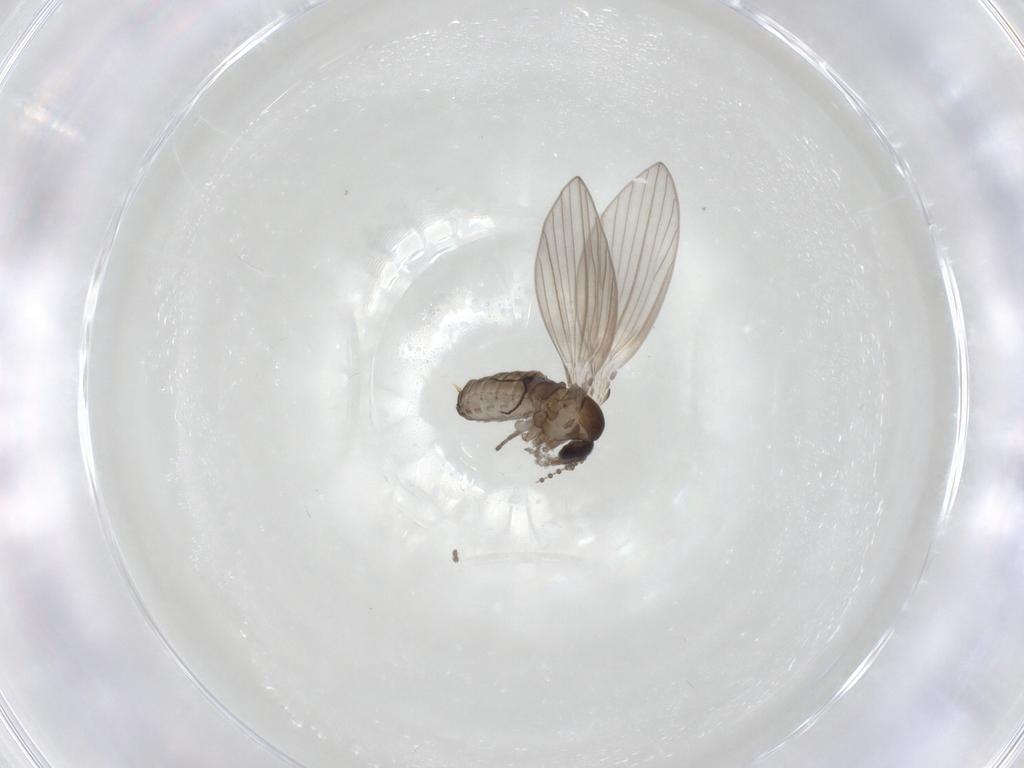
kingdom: Animalia
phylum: Arthropoda
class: Insecta
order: Diptera
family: Psychodidae
